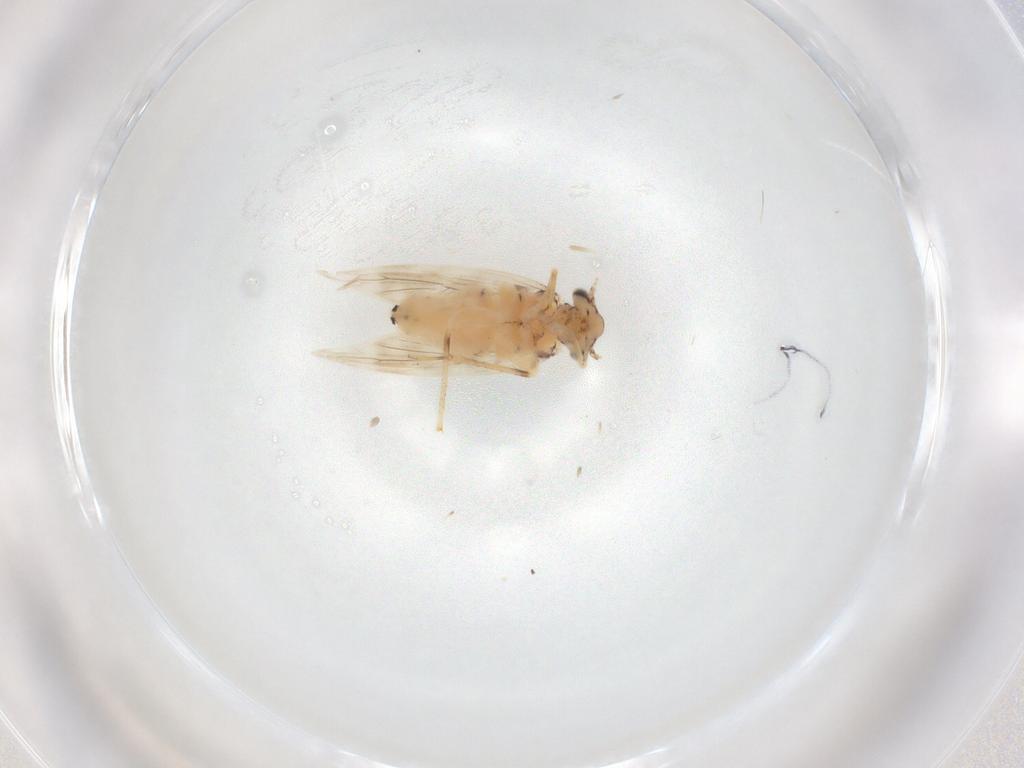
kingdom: Animalia
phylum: Arthropoda
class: Insecta
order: Psocodea
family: Lepidopsocidae
